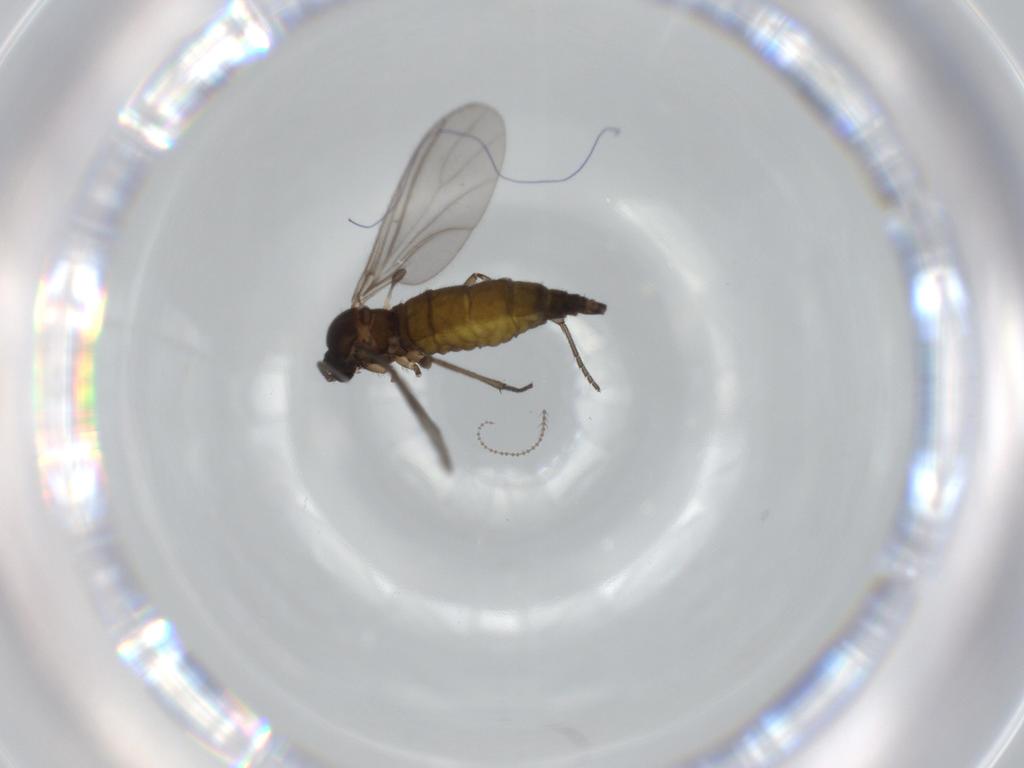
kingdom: Animalia
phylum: Arthropoda
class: Insecta
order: Diptera
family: Sciaridae
